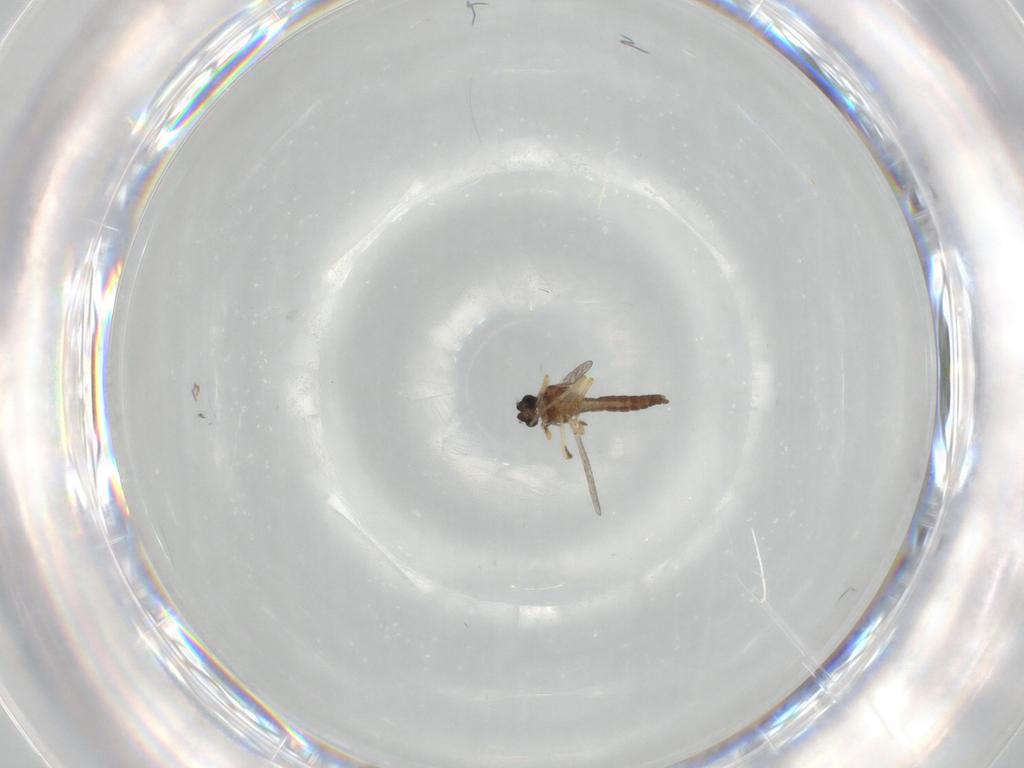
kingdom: Animalia
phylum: Arthropoda
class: Insecta
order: Diptera
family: Ceratopogonidae
